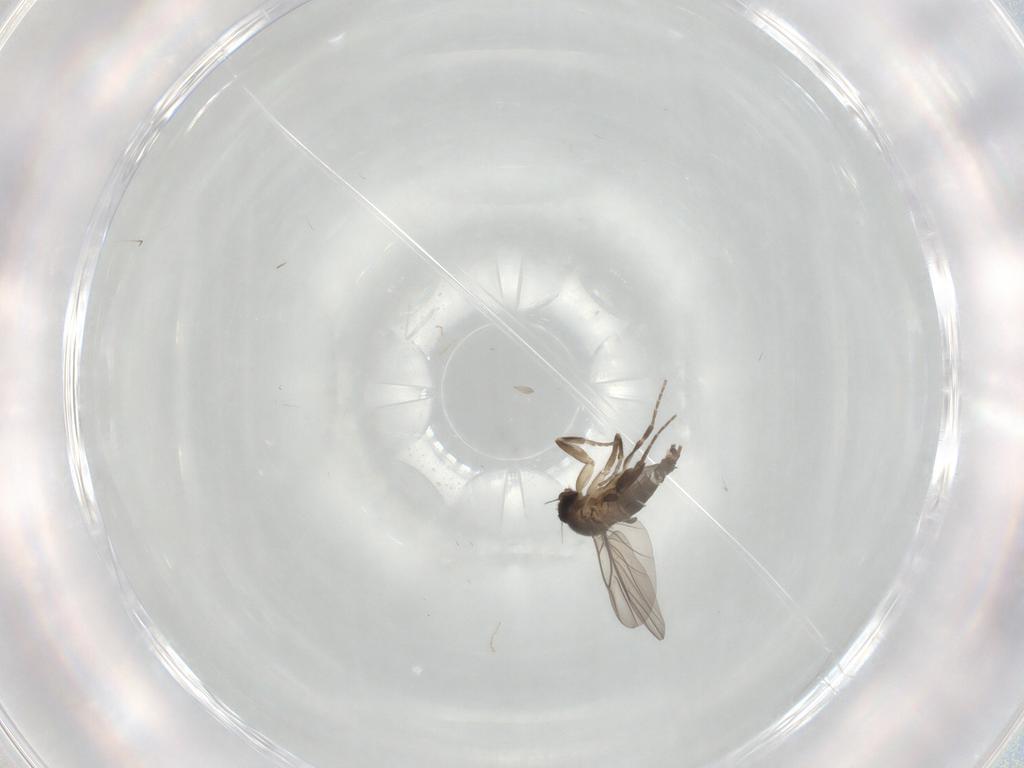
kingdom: Animalia
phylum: Arthropoda
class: Insecta
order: Diptera
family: Phoridae
